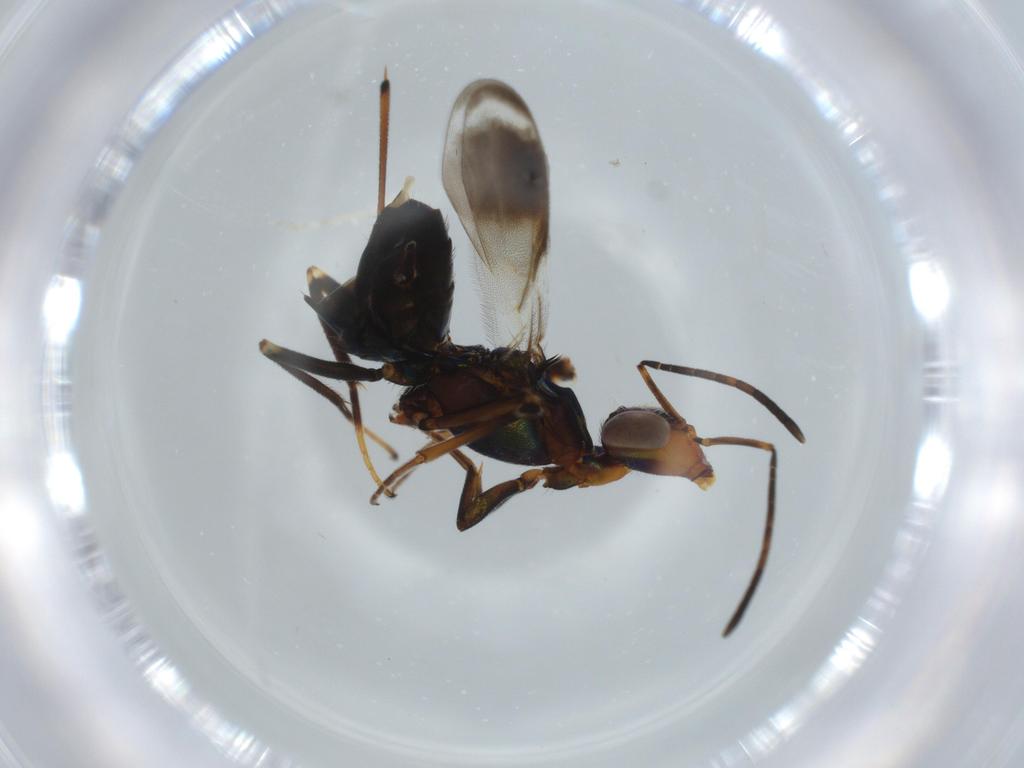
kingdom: Animalia
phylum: Arthropoda
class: Insecta
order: Hymenoptera
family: Eupelmidae
